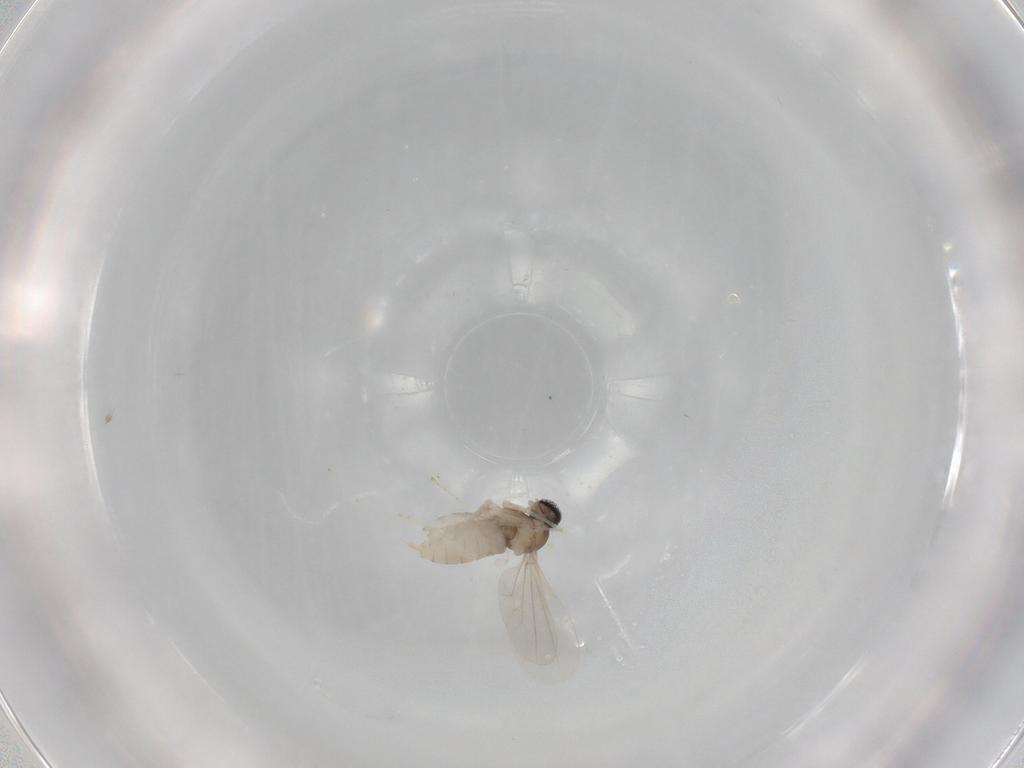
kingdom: Animalia
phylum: Arthropoda
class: Insecta
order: Diptera
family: Cecidomyiidae
